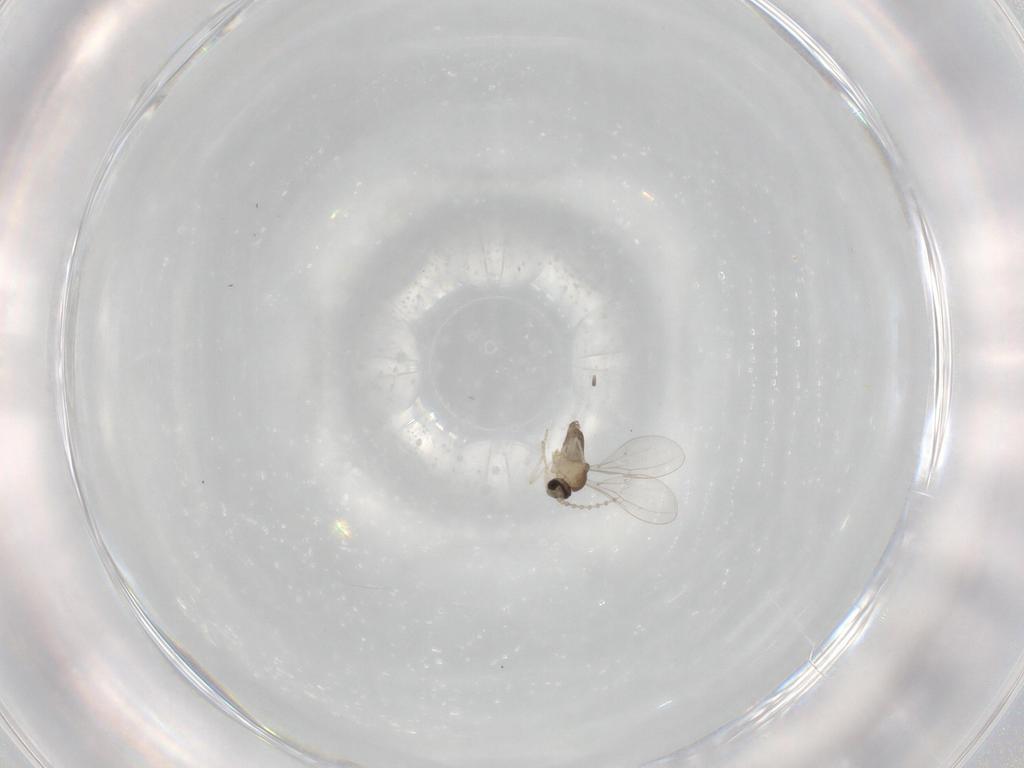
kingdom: Animalia
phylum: Arthropoda
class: Insecta
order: Diptera
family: Cecidomyiidae
